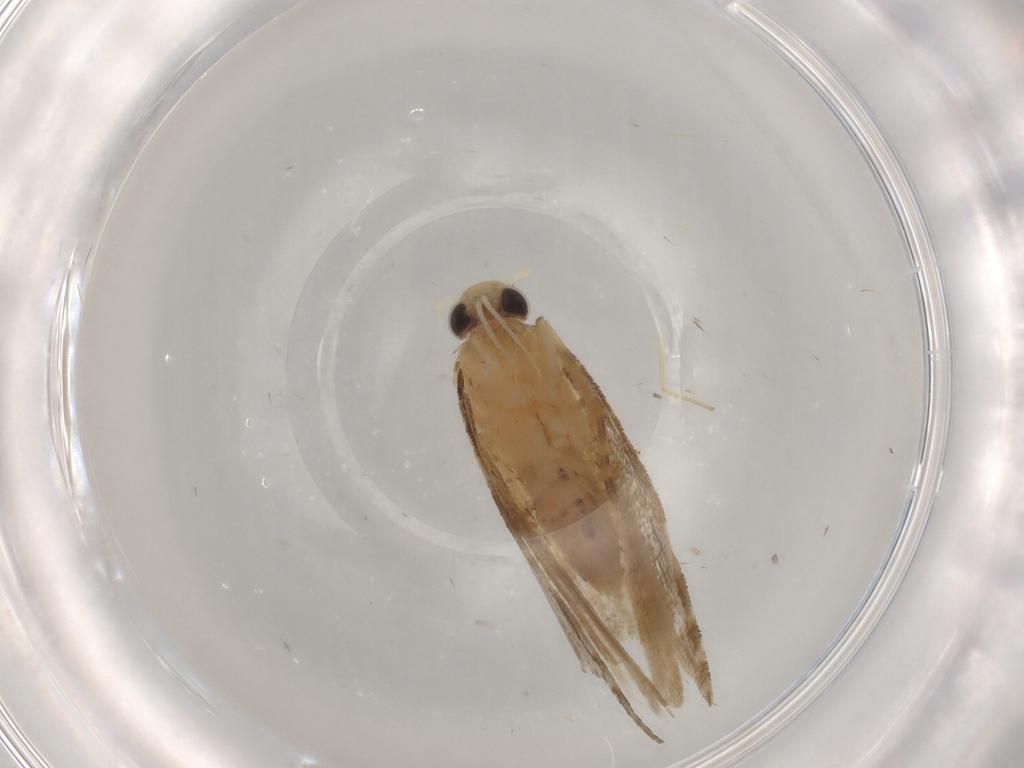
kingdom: Animalia
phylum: Arthropoda
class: Insecta
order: Lepidoptera
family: Gelechiidae
